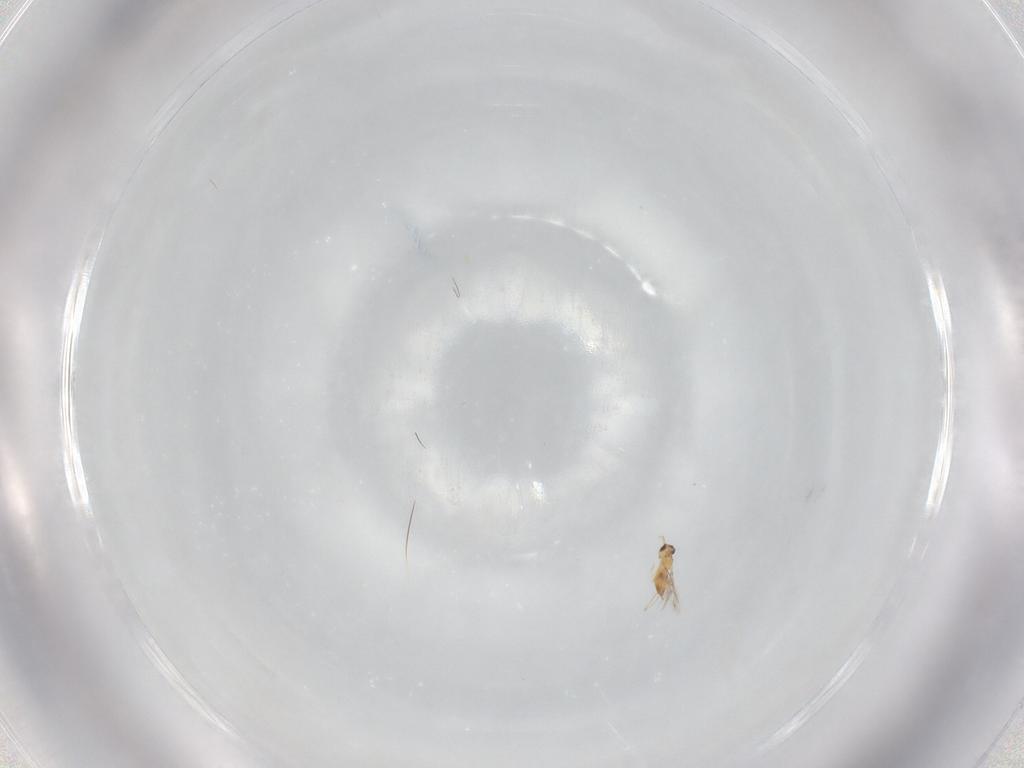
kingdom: Animalia
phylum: Arthropoda
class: Insecta
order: Hymenoptera
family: Mymaridae
